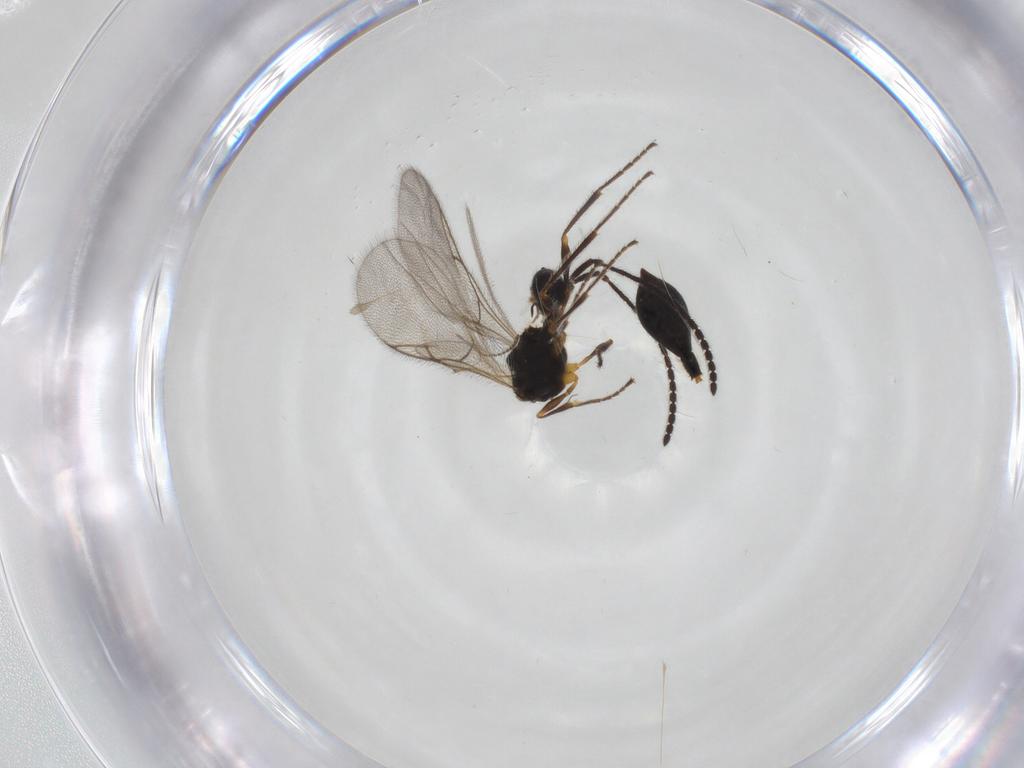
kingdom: Animalia
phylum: Arthropoda
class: Insecta
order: Hymenoptera
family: Diapriidae
